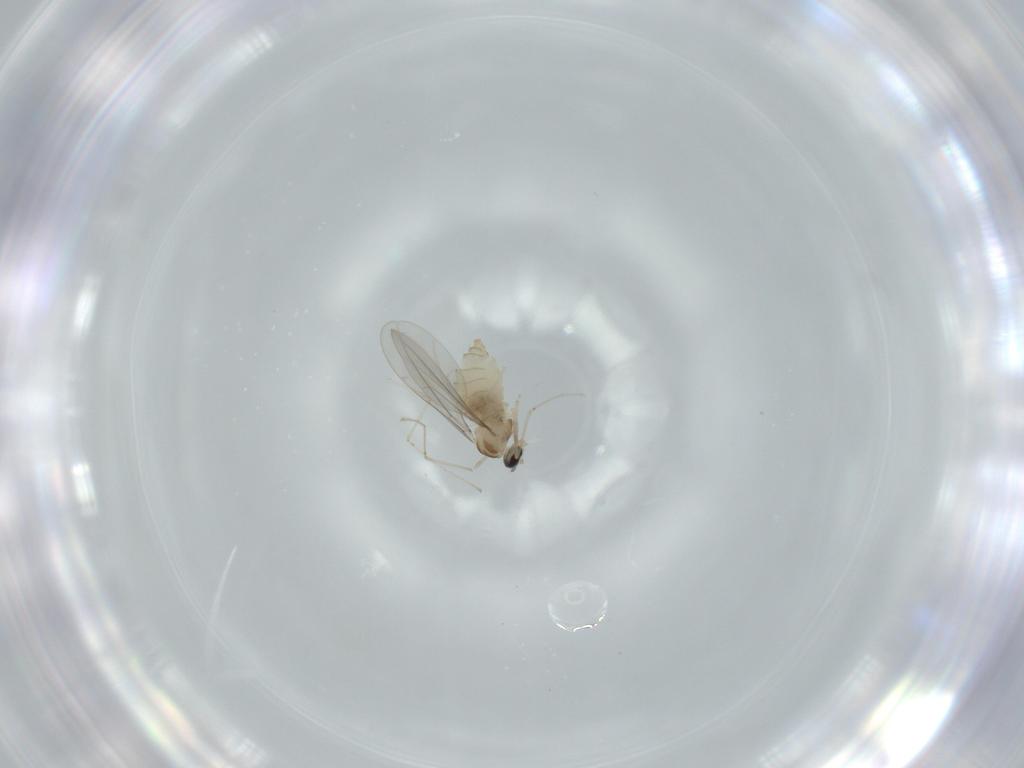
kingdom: Animalia
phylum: Arthropoda
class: Insecta
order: Diptera
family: Cecidomyiidae
